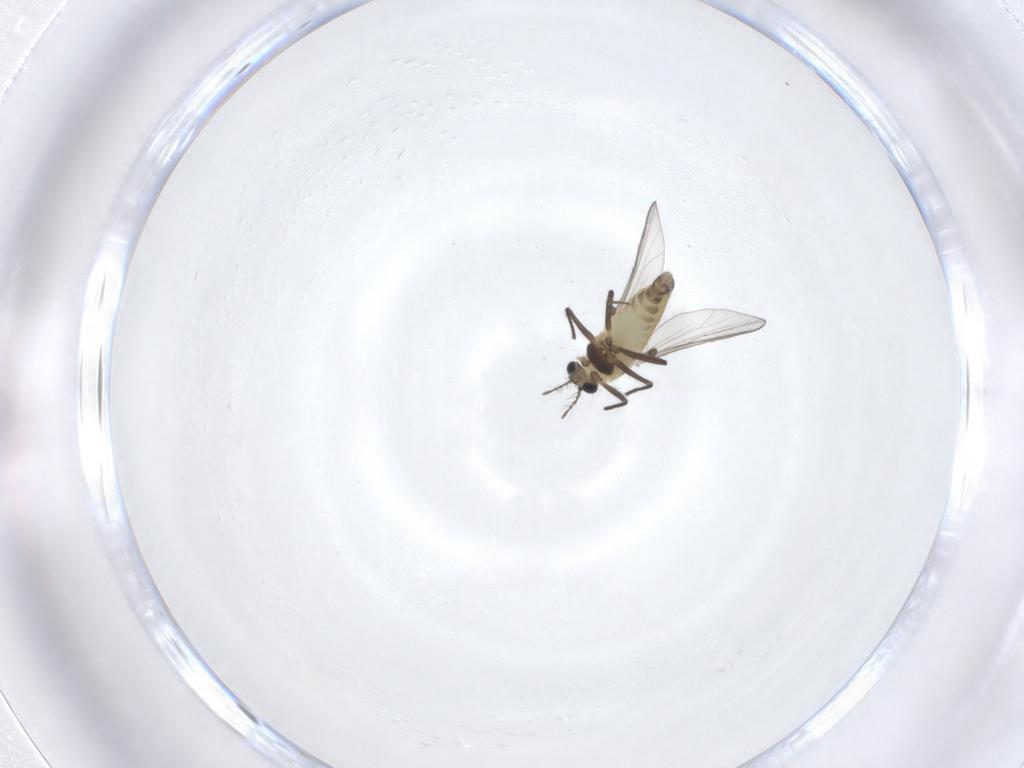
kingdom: Animalia
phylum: Arthropoda
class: Insecta
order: Diptera
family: Chironomidae
